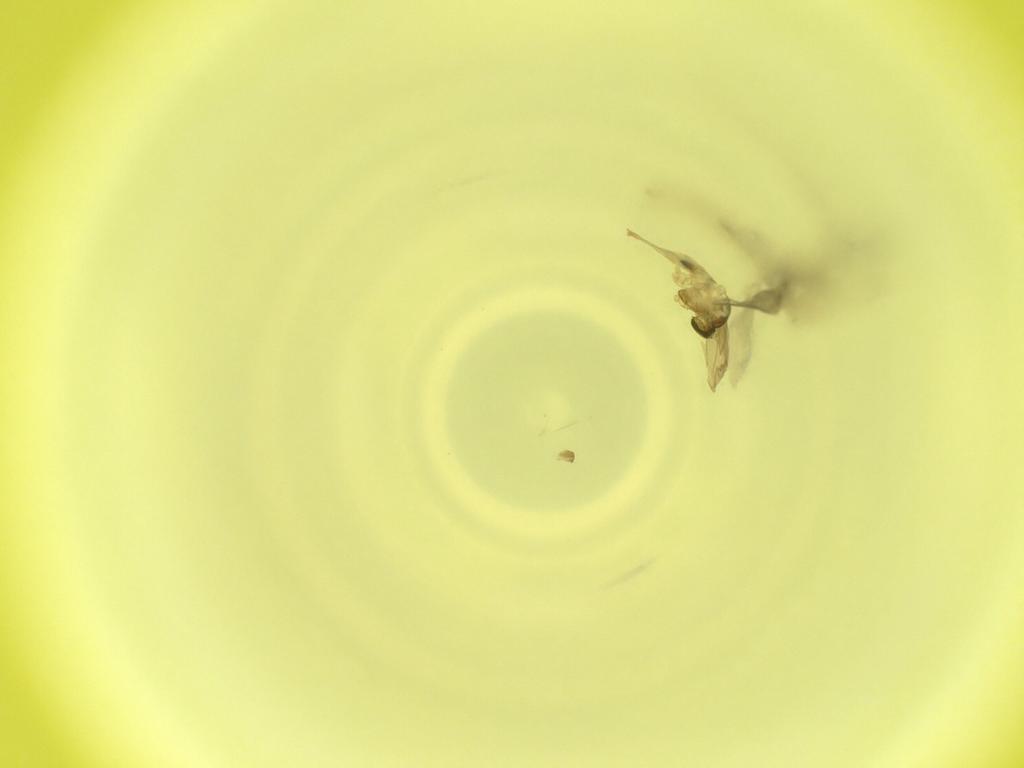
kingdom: Animalia
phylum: Arthropoda
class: Insecta
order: Diptera
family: Cecidomyiidae
